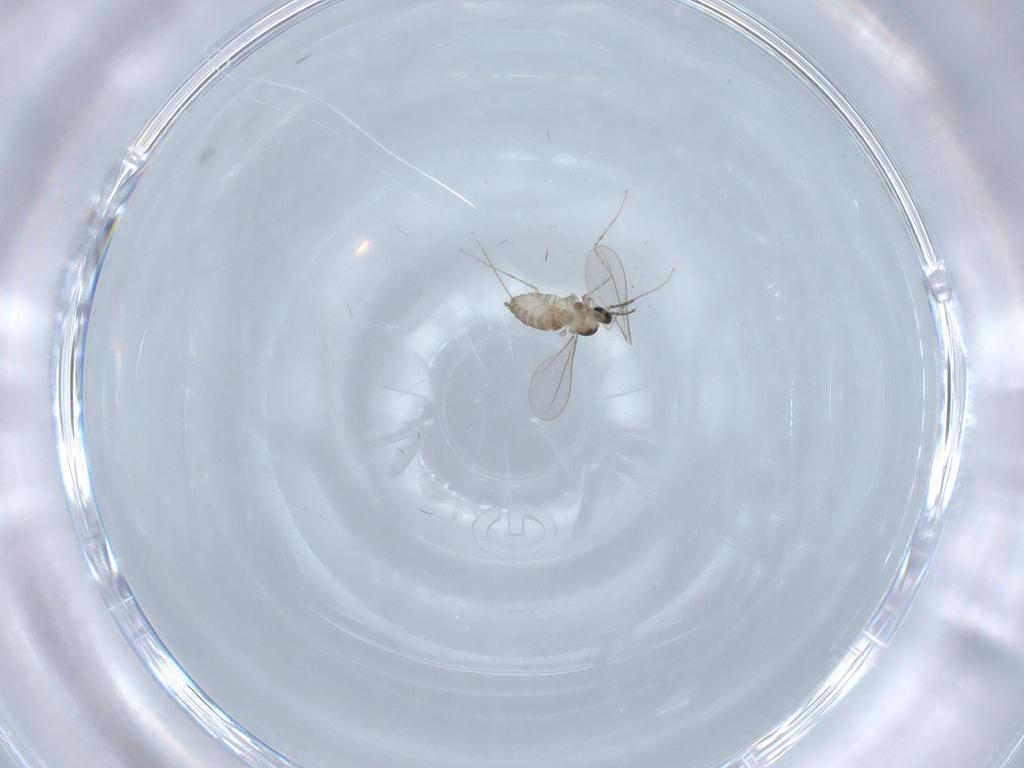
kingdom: Animalia
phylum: Arthropoda
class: Insecta
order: Diptera
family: Cecidomyiidae
